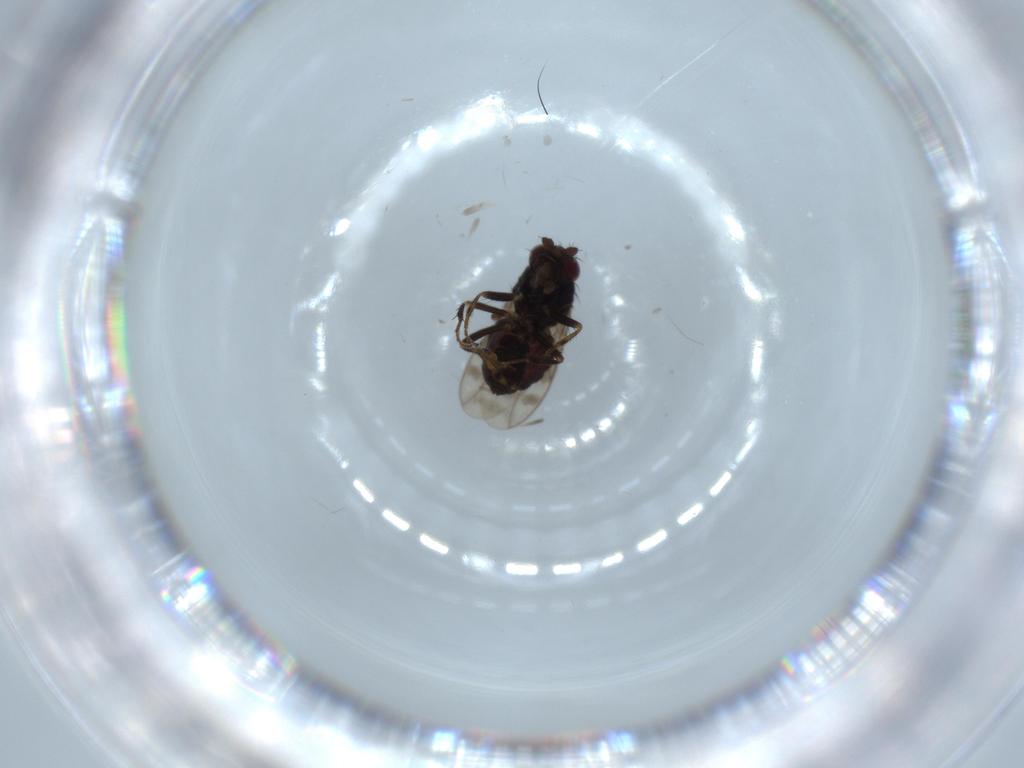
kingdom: Animalia
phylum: Arthropoda
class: Insecta
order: Diptera
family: Sphaeroceridae
